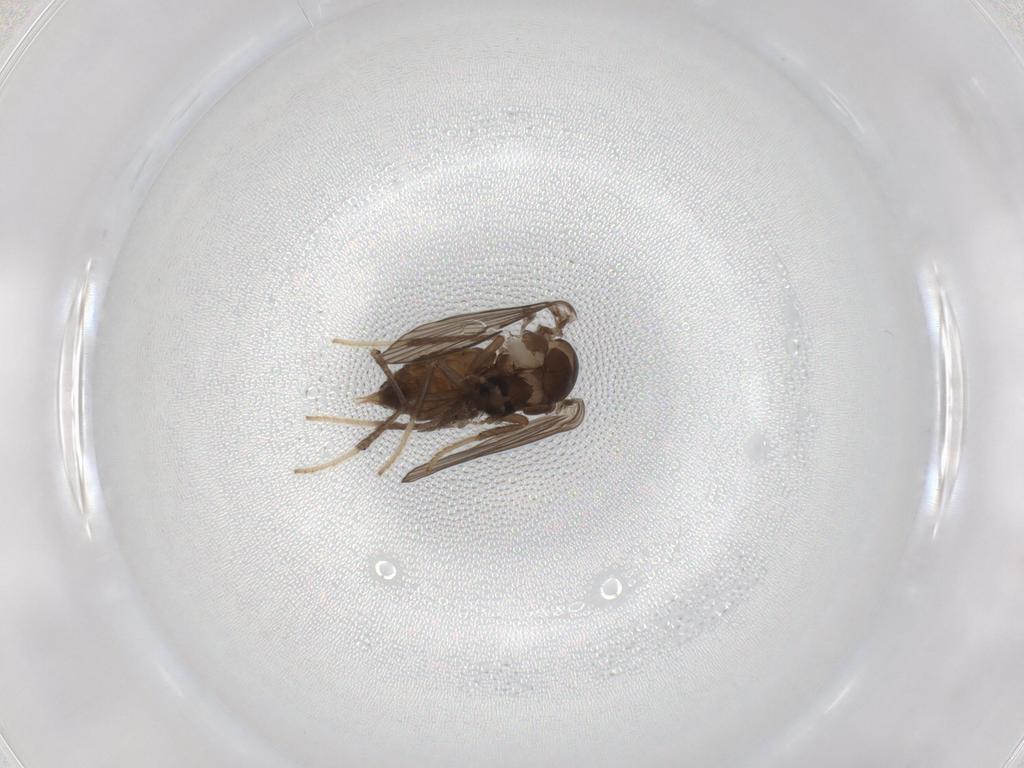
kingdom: Animalia
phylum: Arthropoda
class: Insecta
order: Diptera
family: Psychodidae
